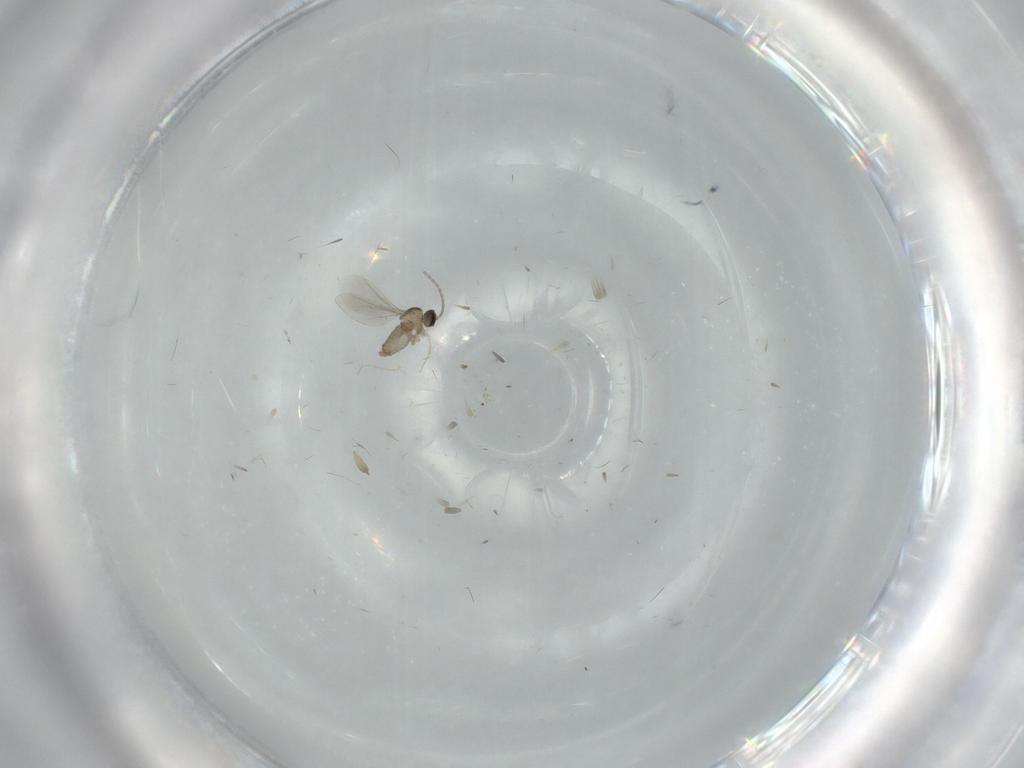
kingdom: Animalia
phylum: Arthropoda
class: Insecta
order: Diptera
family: Cecidomyiidae
